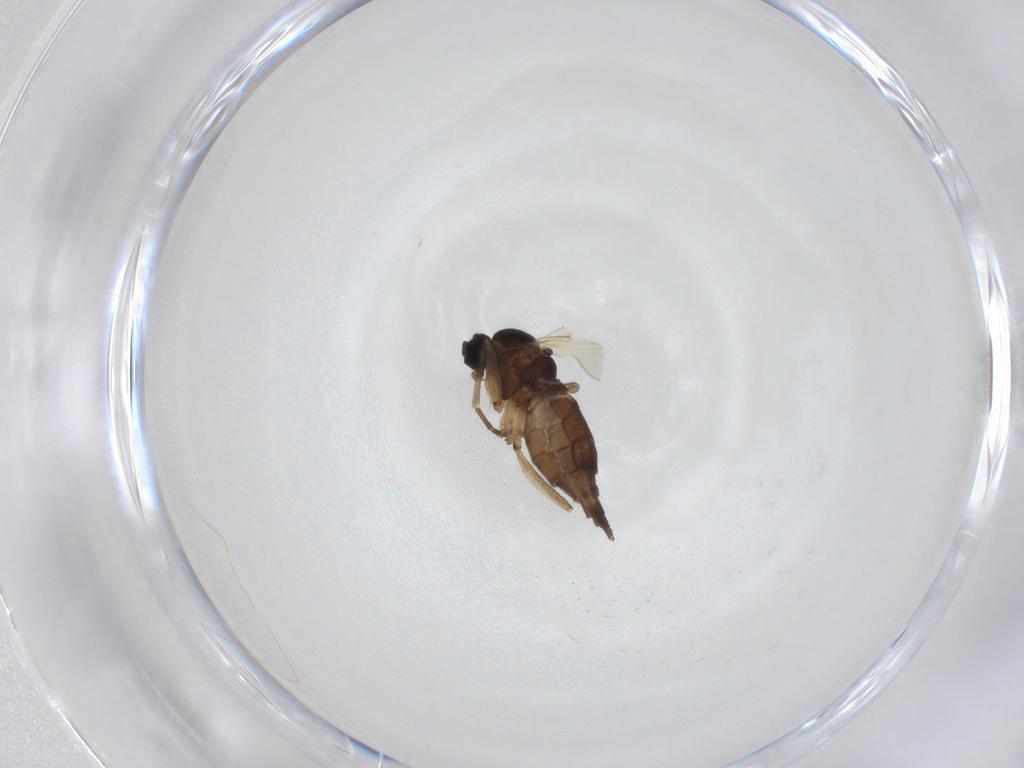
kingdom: Animalia
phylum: Arthropoda
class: Insecta
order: Diptera
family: Sciaridae
